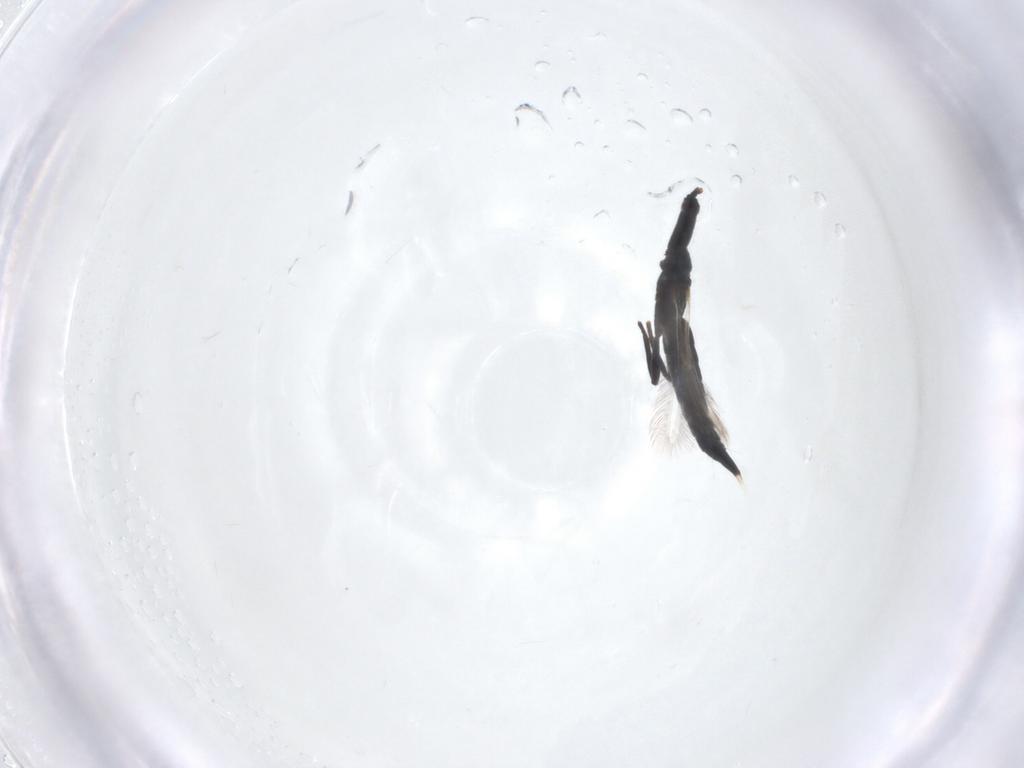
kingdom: Animalia
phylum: Arthropoda
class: Insecta
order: Thysanoptera
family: Phlaeothripidae
